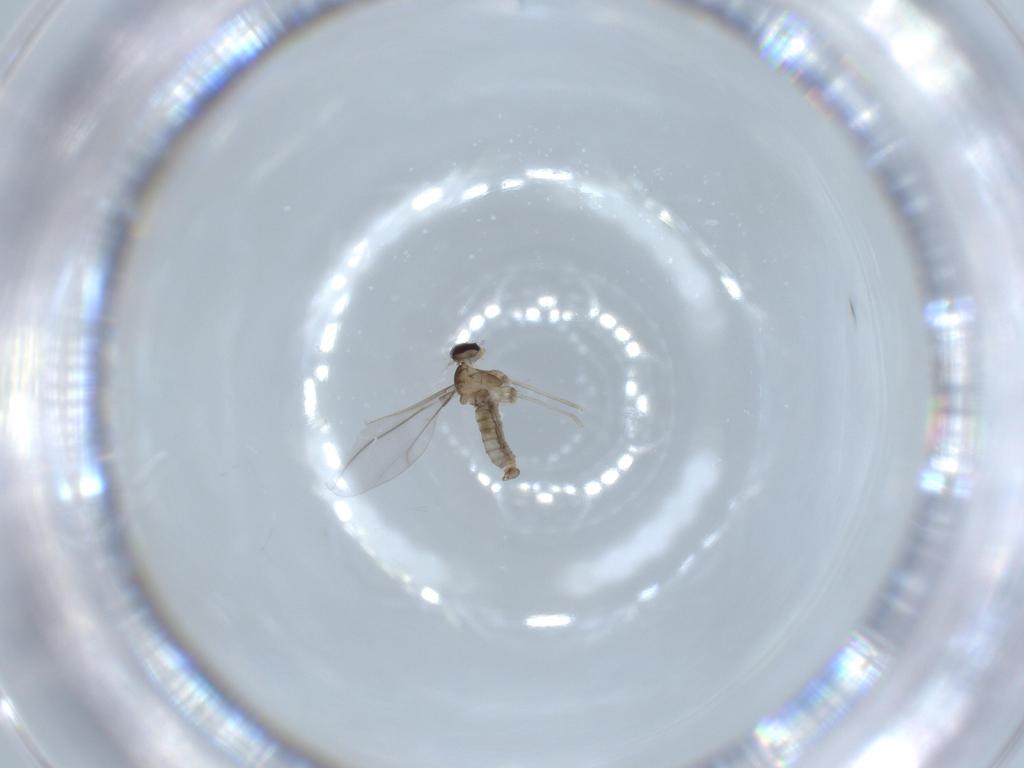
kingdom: Animalia
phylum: Arthropoda
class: Insecta
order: Diptera
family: Cecidomyiidae
